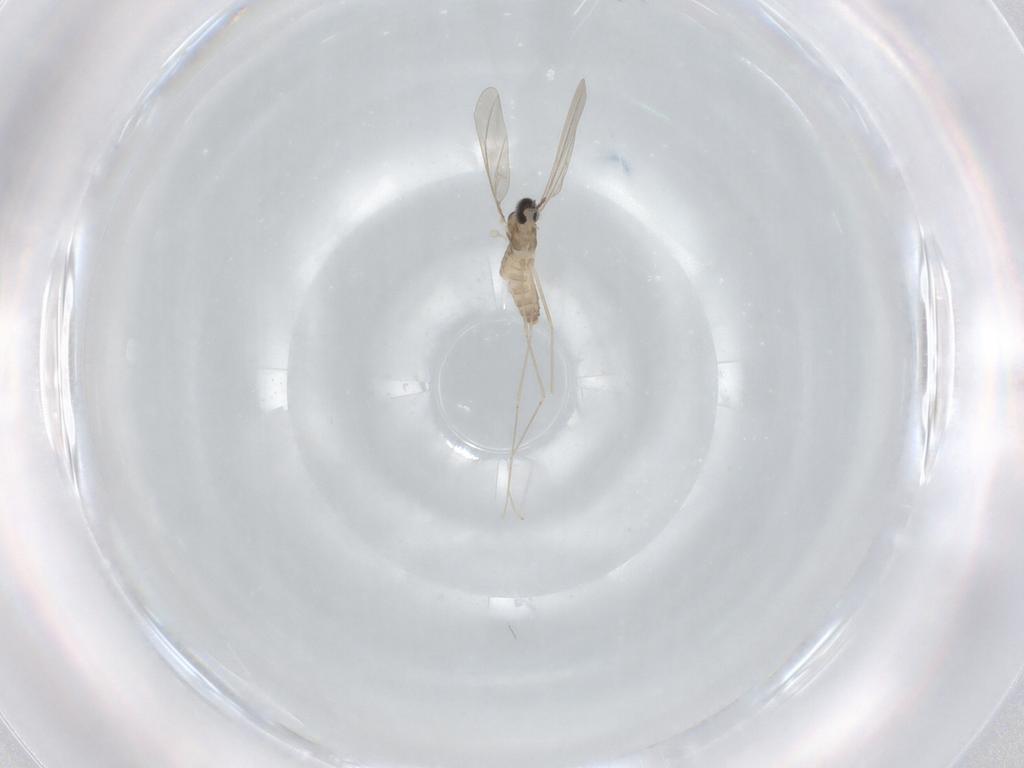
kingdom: Animalia
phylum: Arthropoda
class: Insecta
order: Diptera
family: Cecidomyiidae
